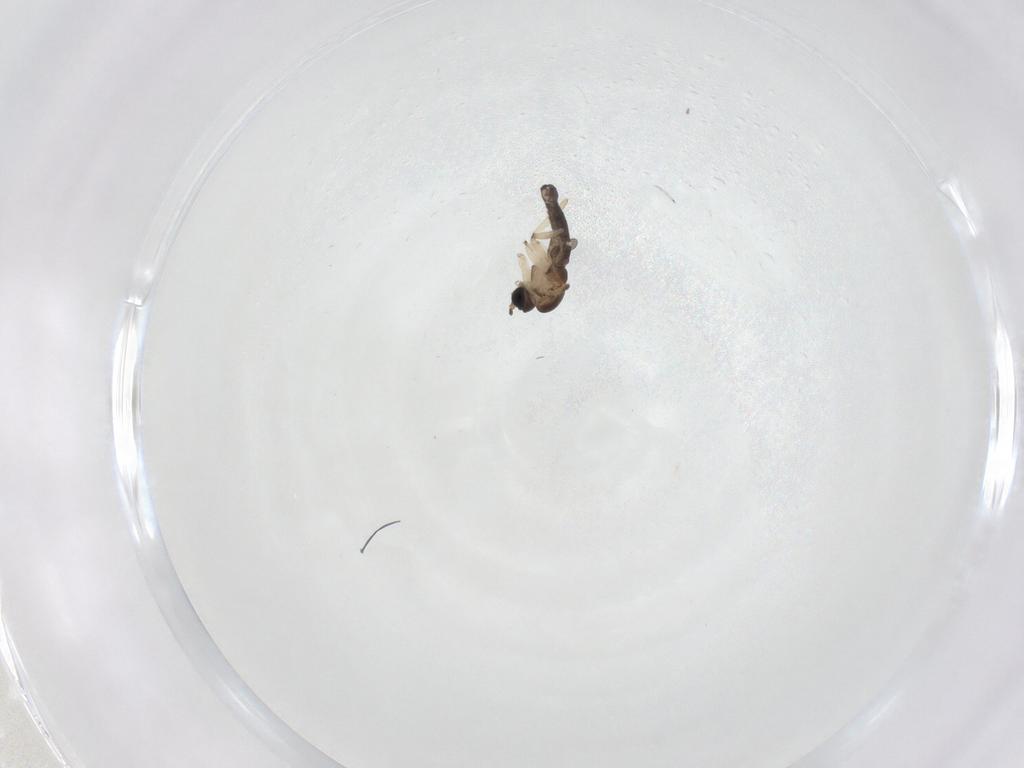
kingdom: Animalia
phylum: Arthropoda
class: Insecta
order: Diptera
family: Sciaridae
